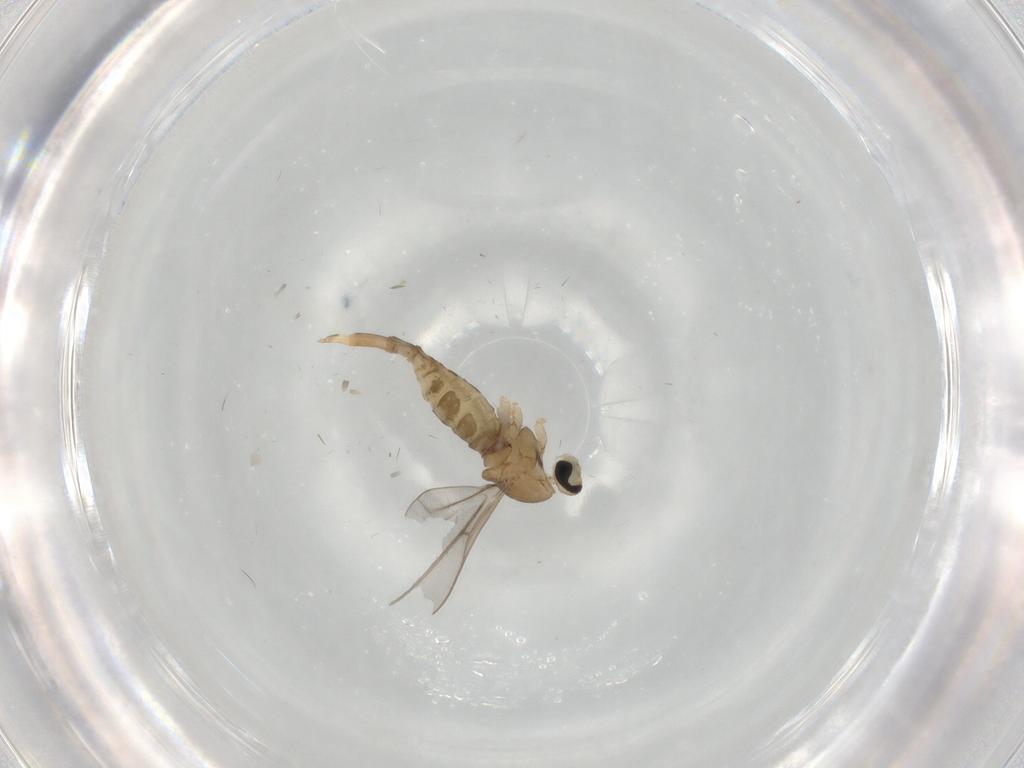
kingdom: Animalia
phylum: Arthropoda
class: Insecta
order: Diptera
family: Cecidomyiidae
